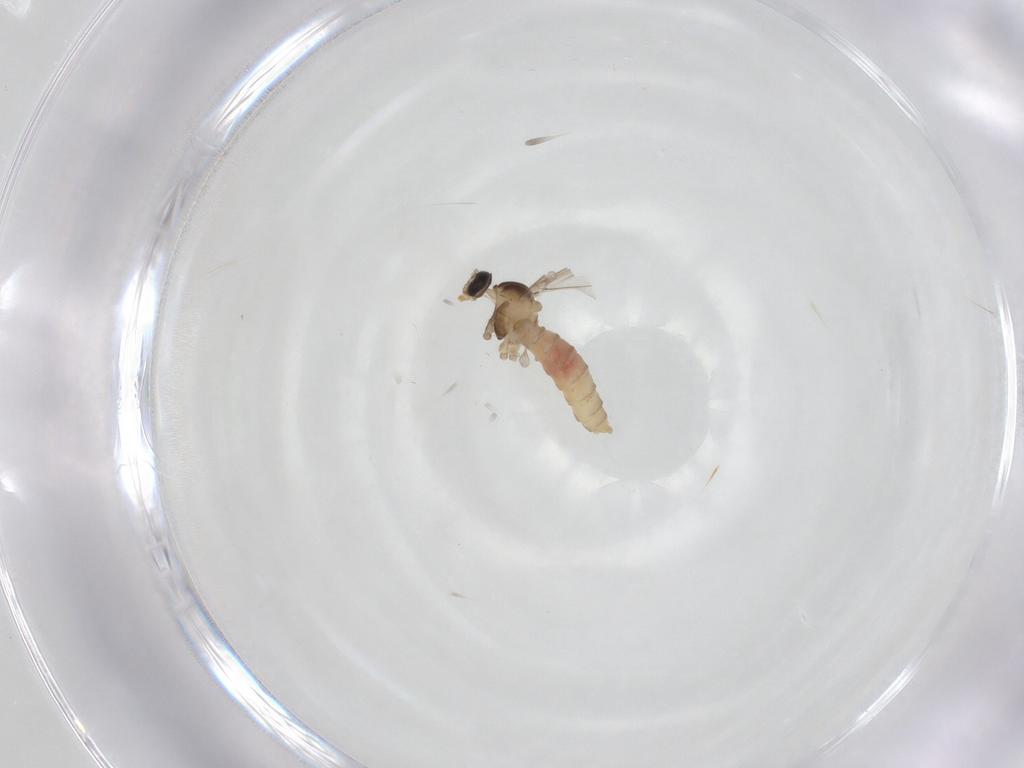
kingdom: Animalia
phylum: Arthropoda
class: Insecta
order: Diptera
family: Cecidomyiidae
